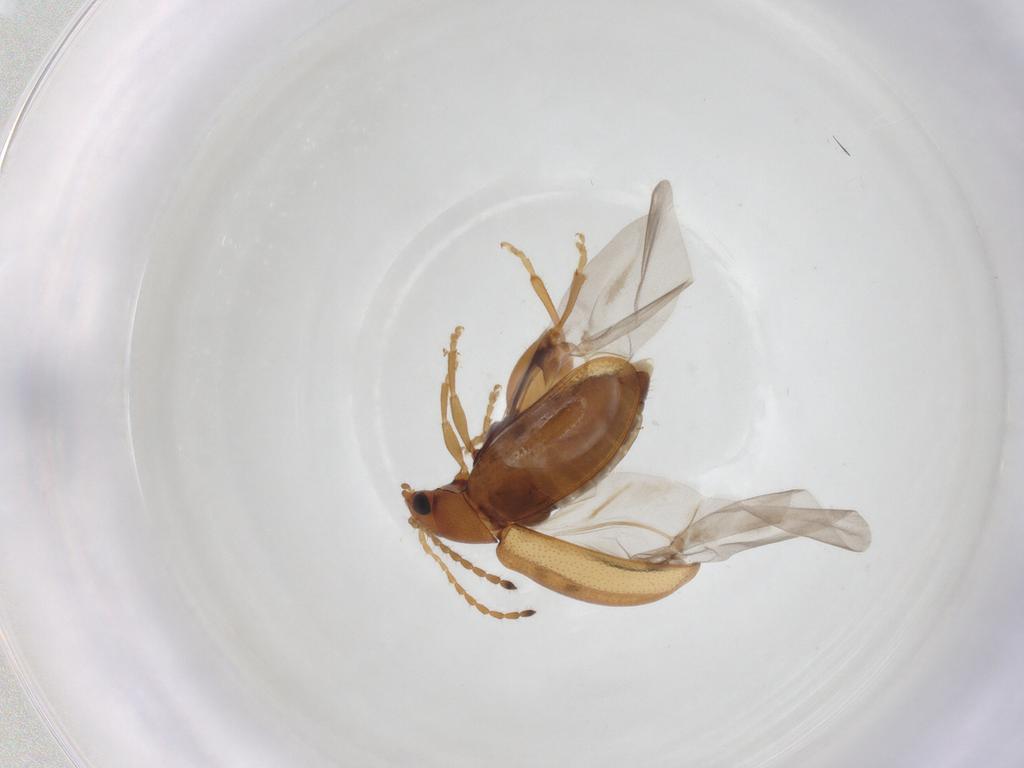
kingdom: Animalia
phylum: Arthropoda
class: Insecta
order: Coleoptera
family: Chrysomelidae
